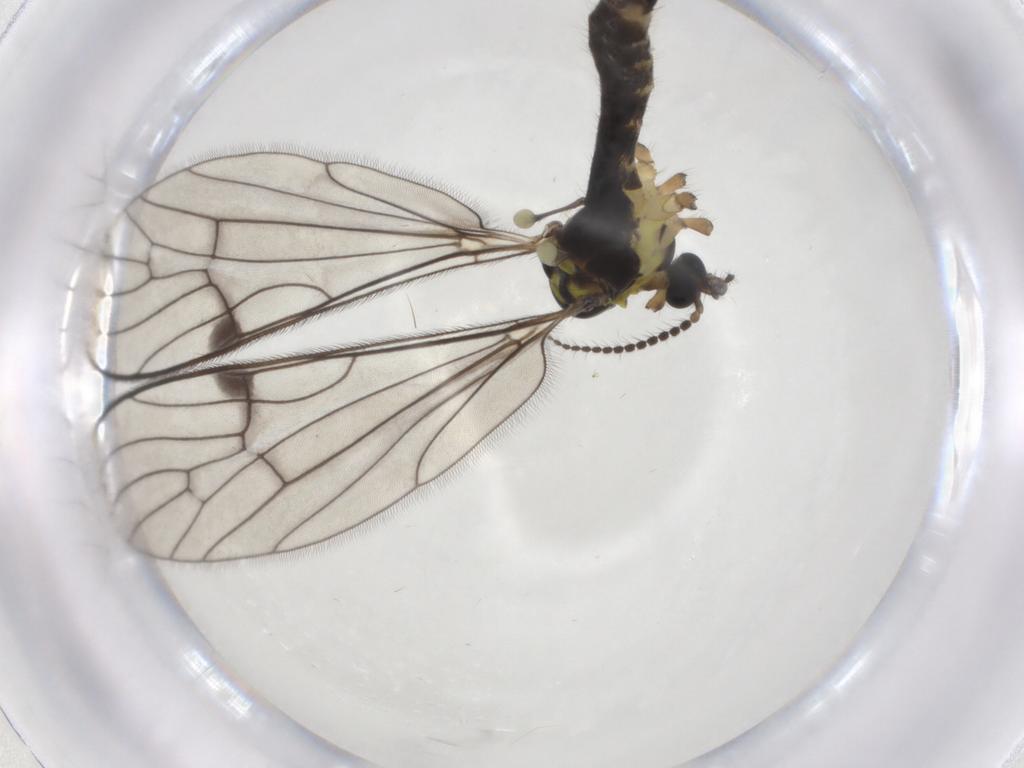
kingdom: Animalia
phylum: Arthropoda
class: Insecta
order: Diptera
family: Limoniidae
